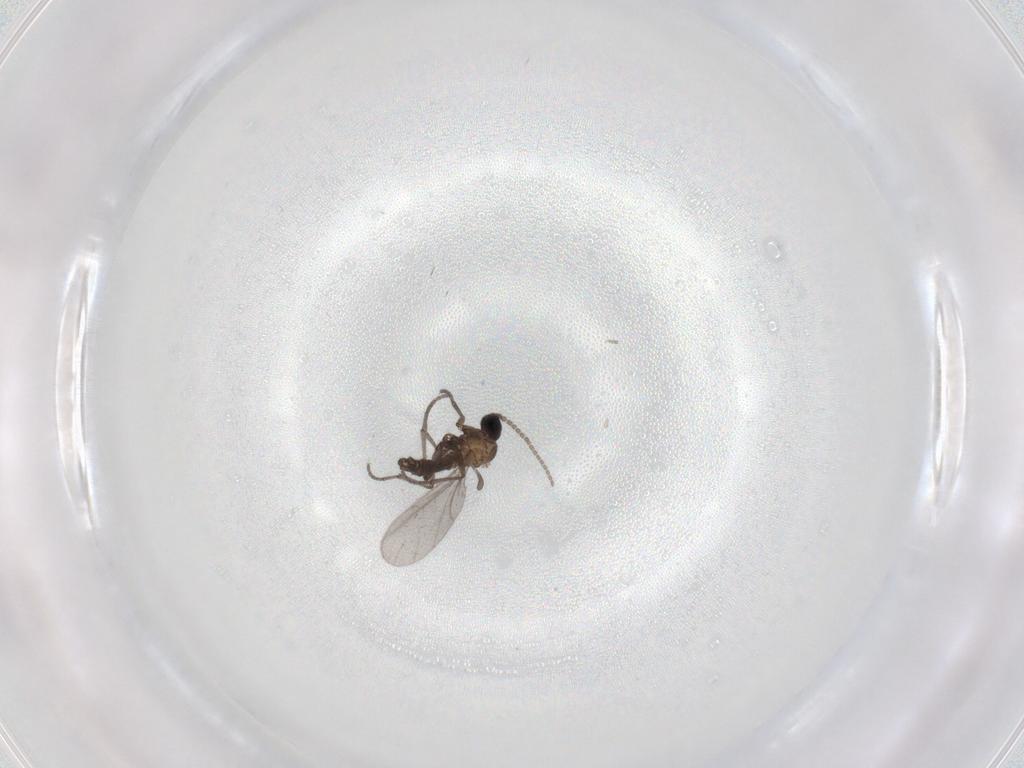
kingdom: Animalia
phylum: Arthropoda
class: Insecta
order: Diptera
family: Sciaridae
